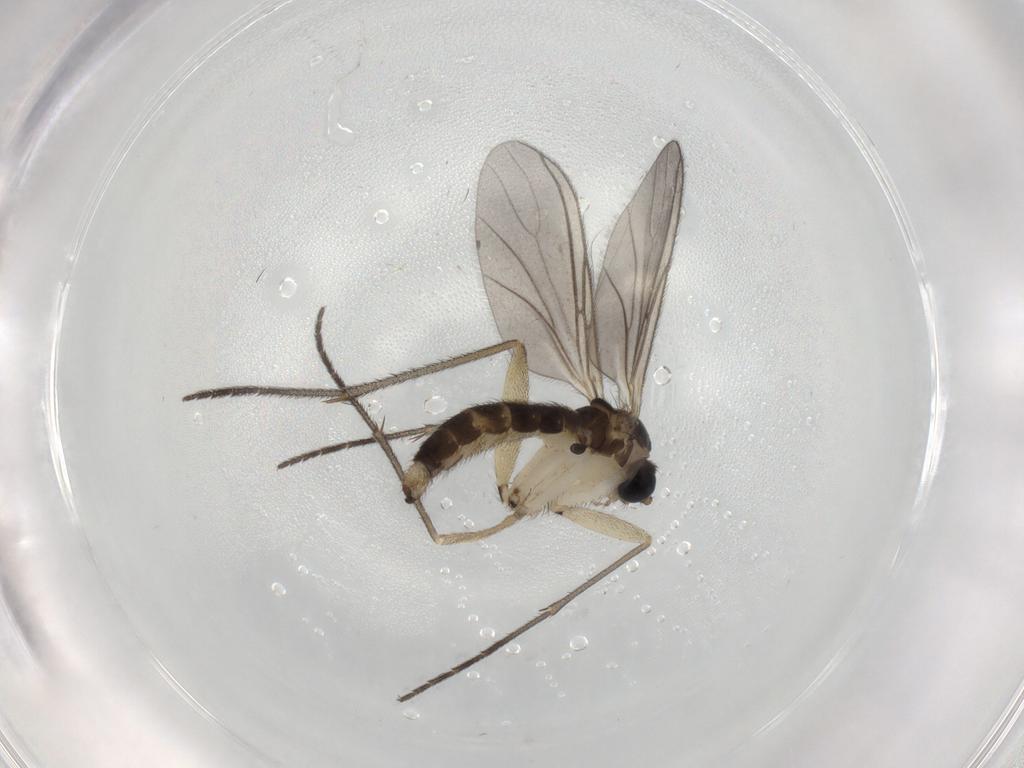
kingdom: Animalia
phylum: Arthropoda
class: Insecta
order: Diptera
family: Sciaridae
